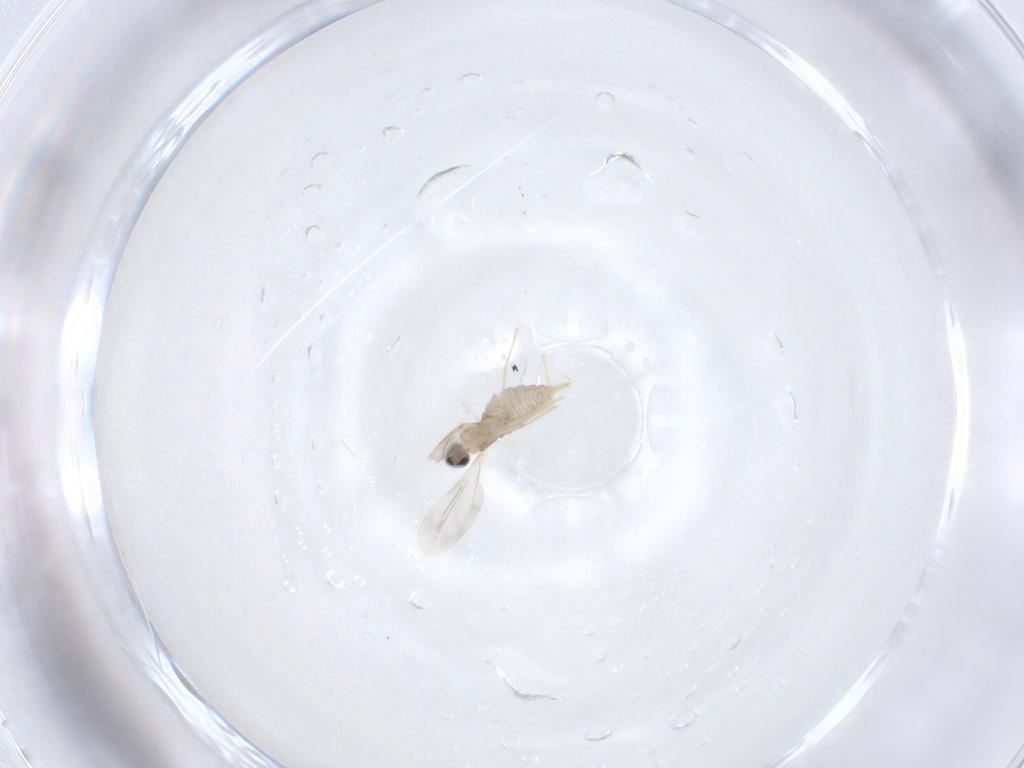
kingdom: Animalia
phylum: Arthropoda
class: Insecta
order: Diptera
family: Cecidomyiidae
